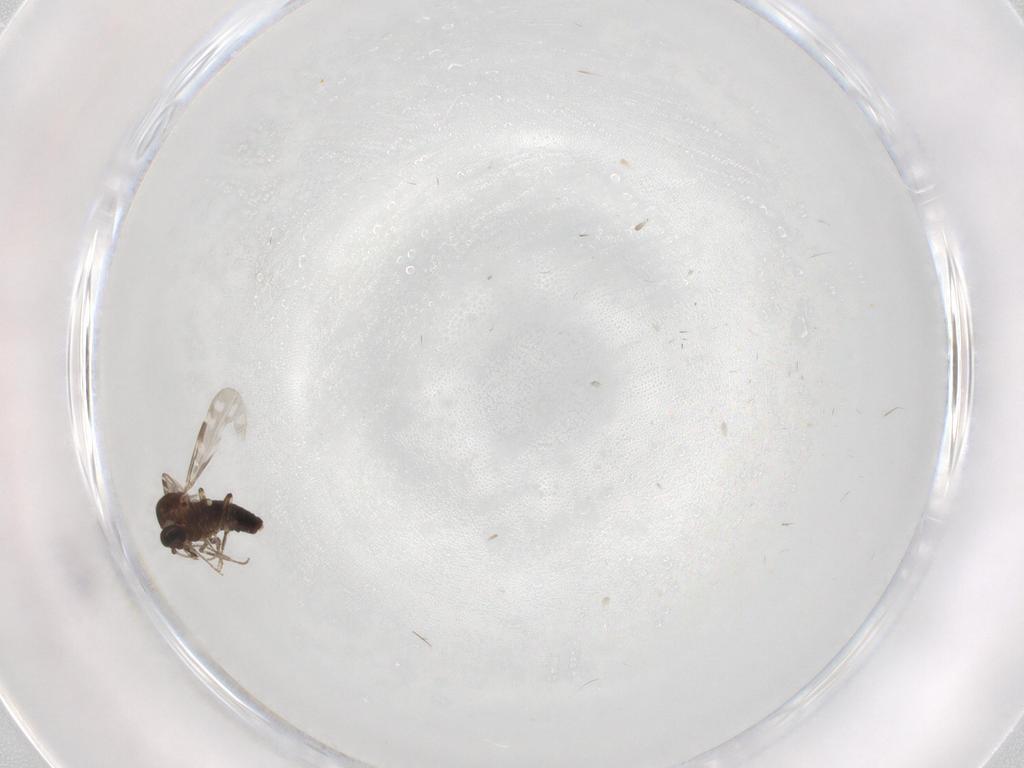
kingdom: Animalia
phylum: Arthropoda
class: Insecta
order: Diptera
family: Ceratopogonidae
